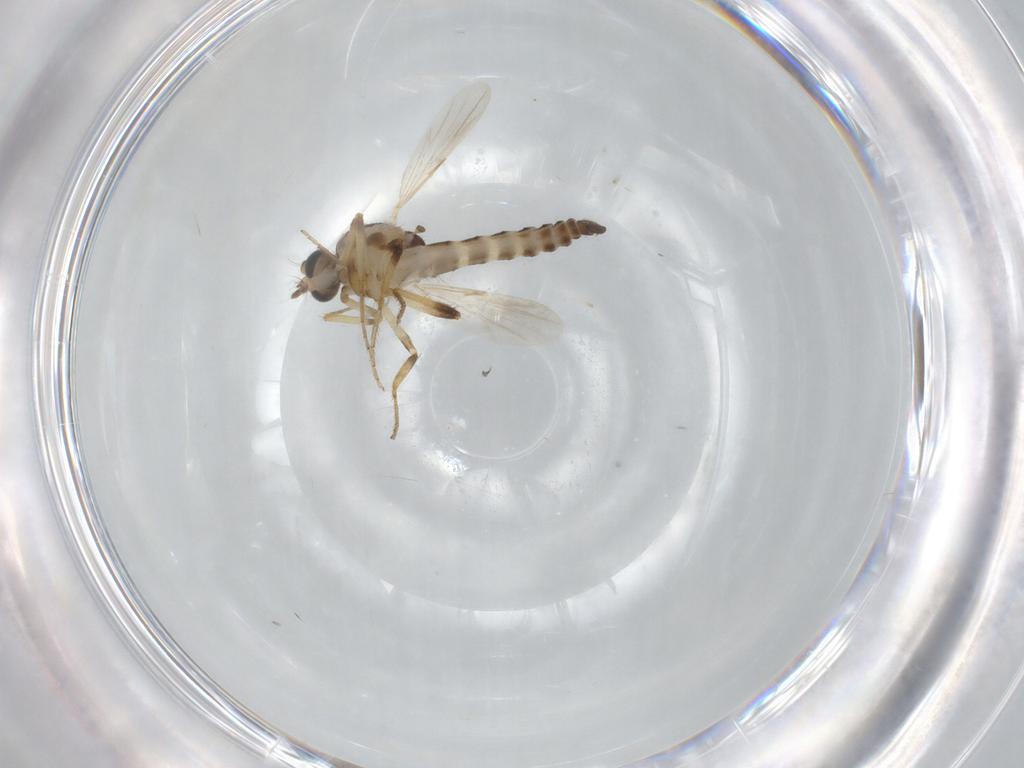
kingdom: Animalia
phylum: Arthropoda
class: Insecta
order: Diptera
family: Ceratopogonidae
